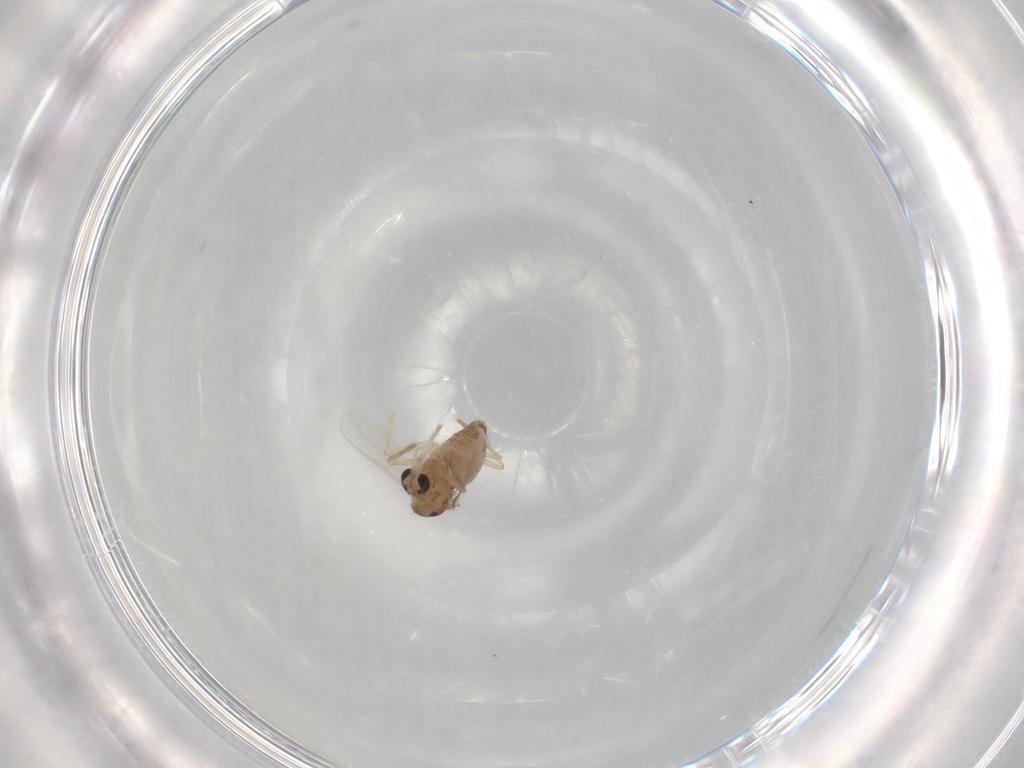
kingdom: Animalia
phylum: Arthropoda
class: Insecta
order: Diptera
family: Chironomidae
